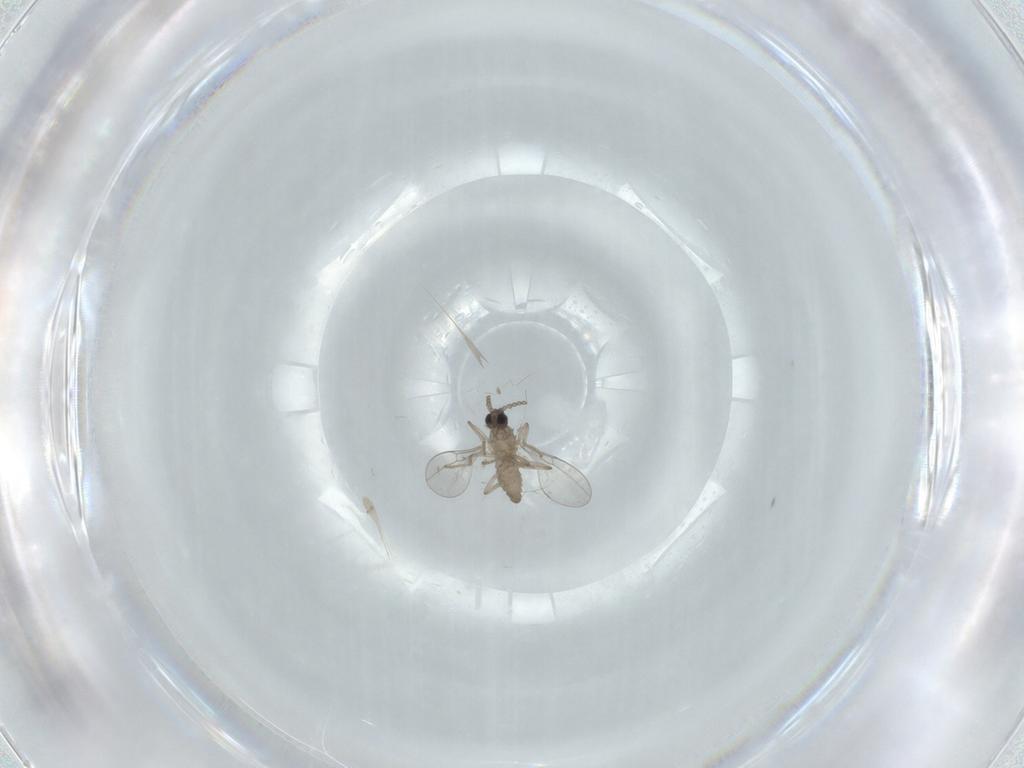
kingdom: Animalia
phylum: Arthropoda
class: Insecta
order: Diptera
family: Cecidomyiidae
